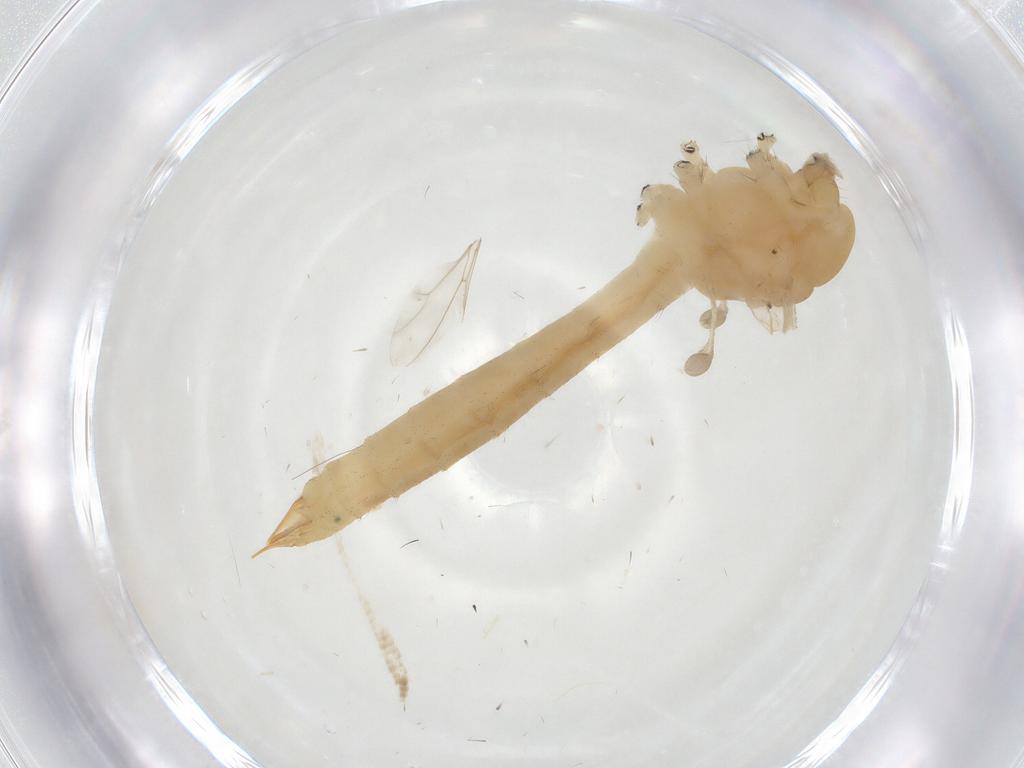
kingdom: Animalia
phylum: Arthropoda
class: Insecta
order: Diptera
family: Limoniidae
